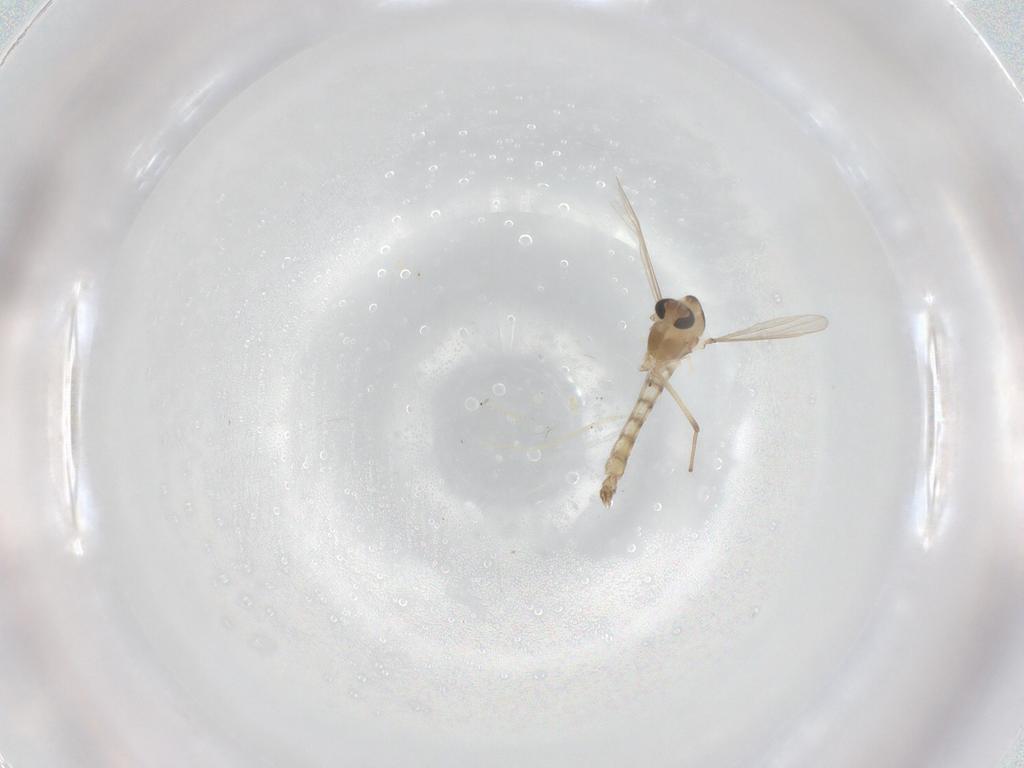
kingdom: Animalia
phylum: Arthropoda
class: Insecta
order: Diptera
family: Chironomidae
